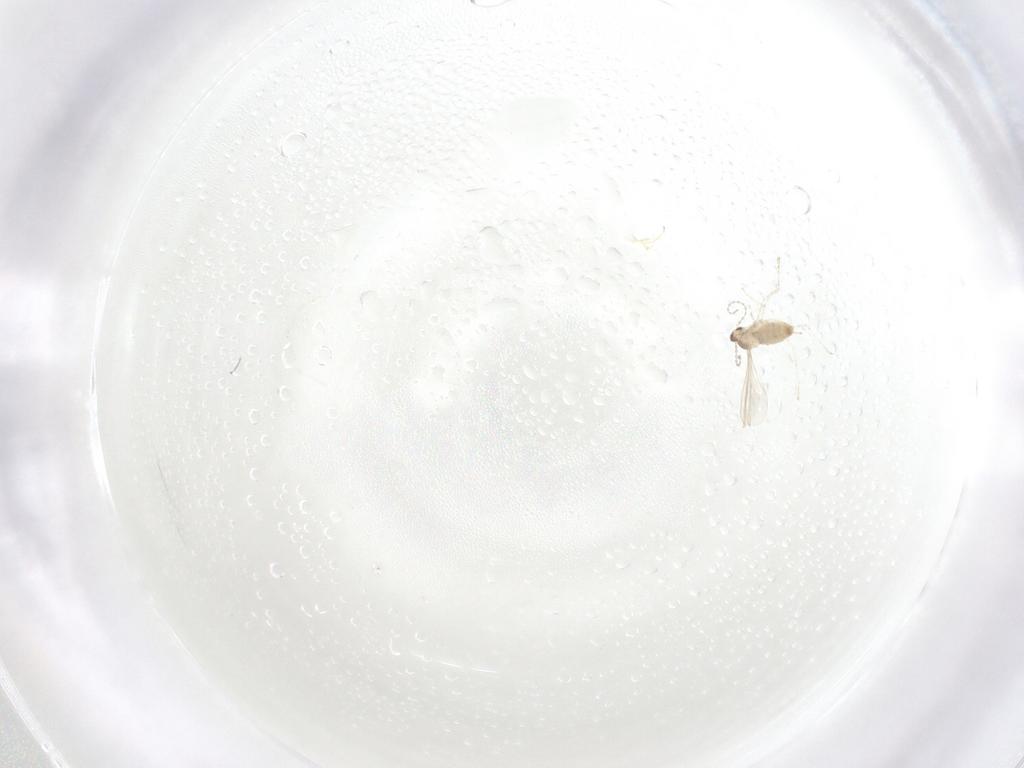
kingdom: Animalia
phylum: Arthropoda
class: Insecta
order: Diptera
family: Cecidomyiidae
